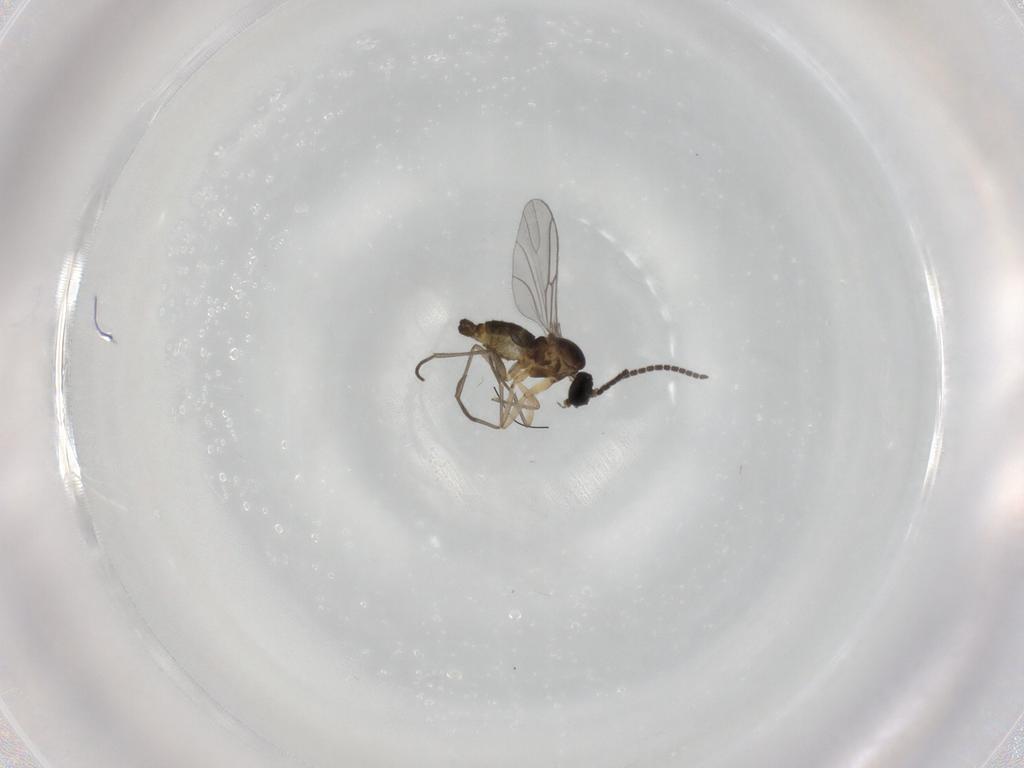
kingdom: Animalia
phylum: Arthropoda
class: Insecta
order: Diptera
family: Sciaridae
